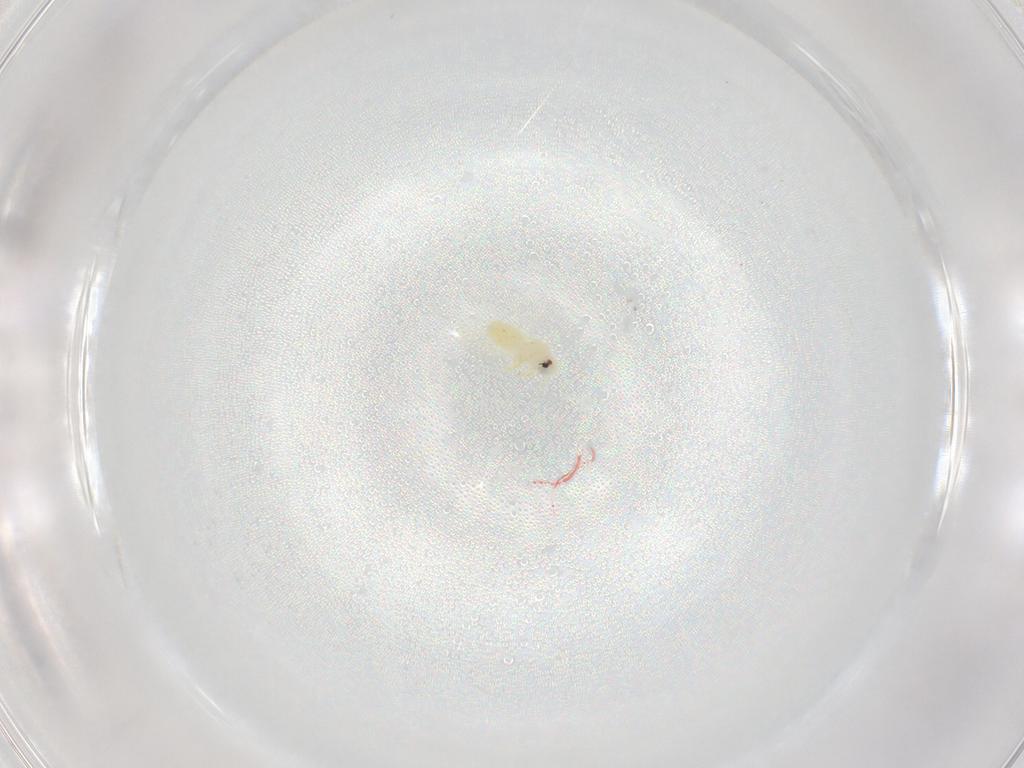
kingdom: Animalia
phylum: Arthropoda
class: Insecta
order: Hemiptera
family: Aleyrodidae
